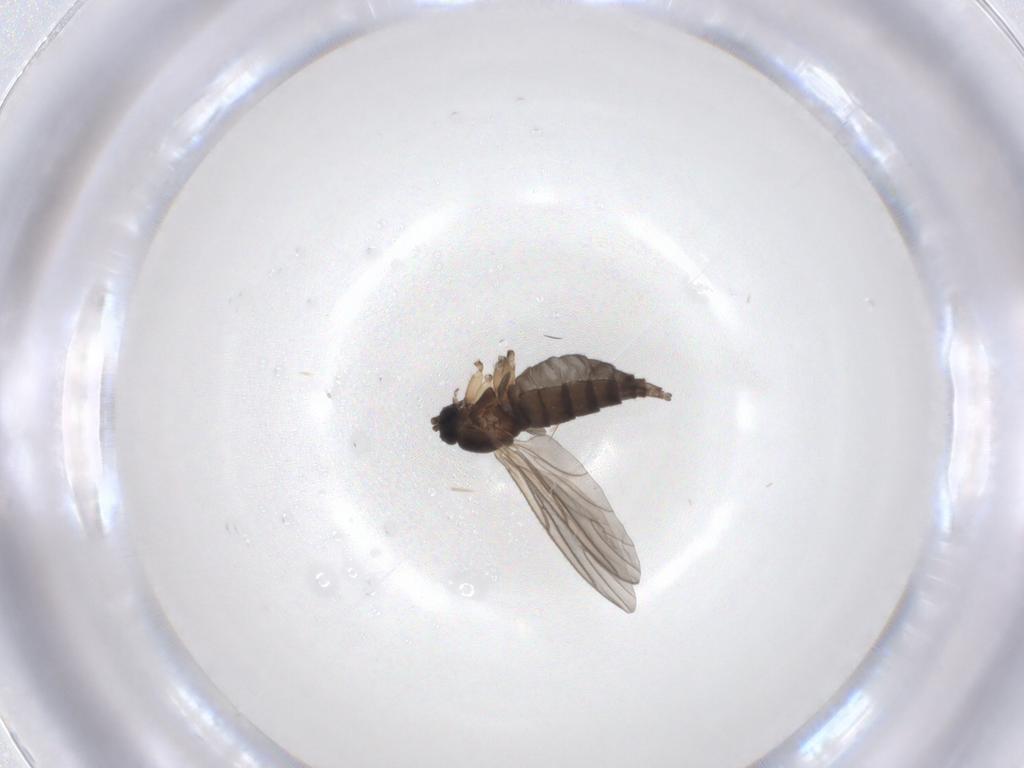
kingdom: Animalia
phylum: Arthropoda
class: Insecta
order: Diptera
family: Sciaridae
